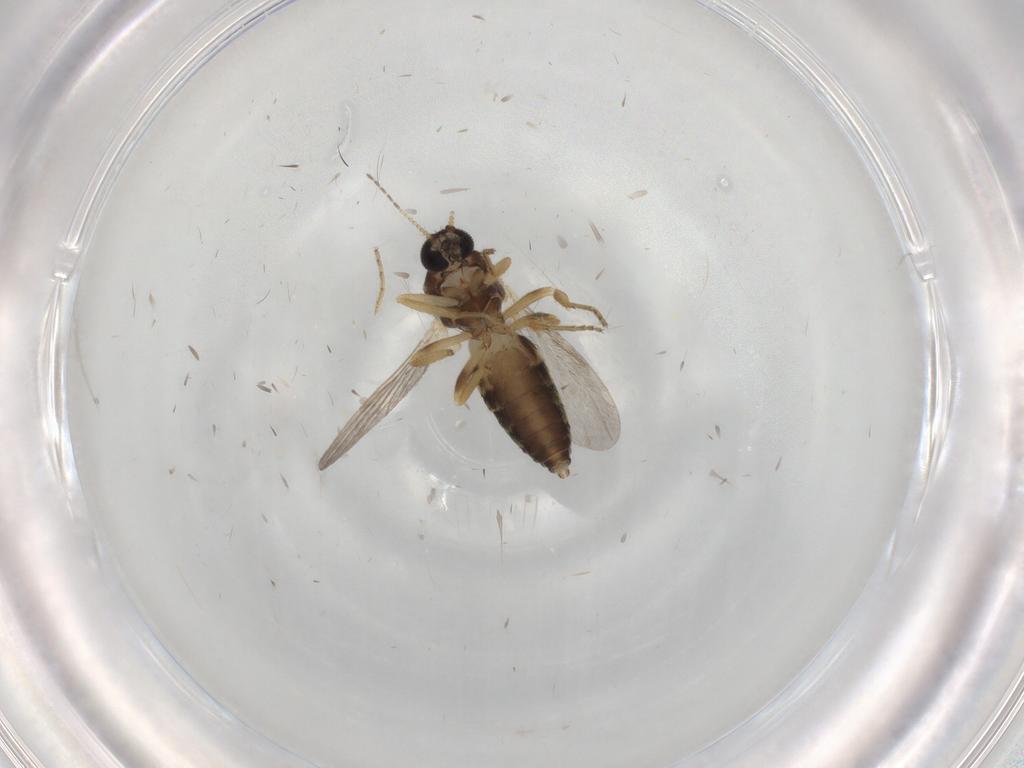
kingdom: Animalia
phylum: Arthropoda
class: Insecta
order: Diptera
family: Ceratopogonidae
